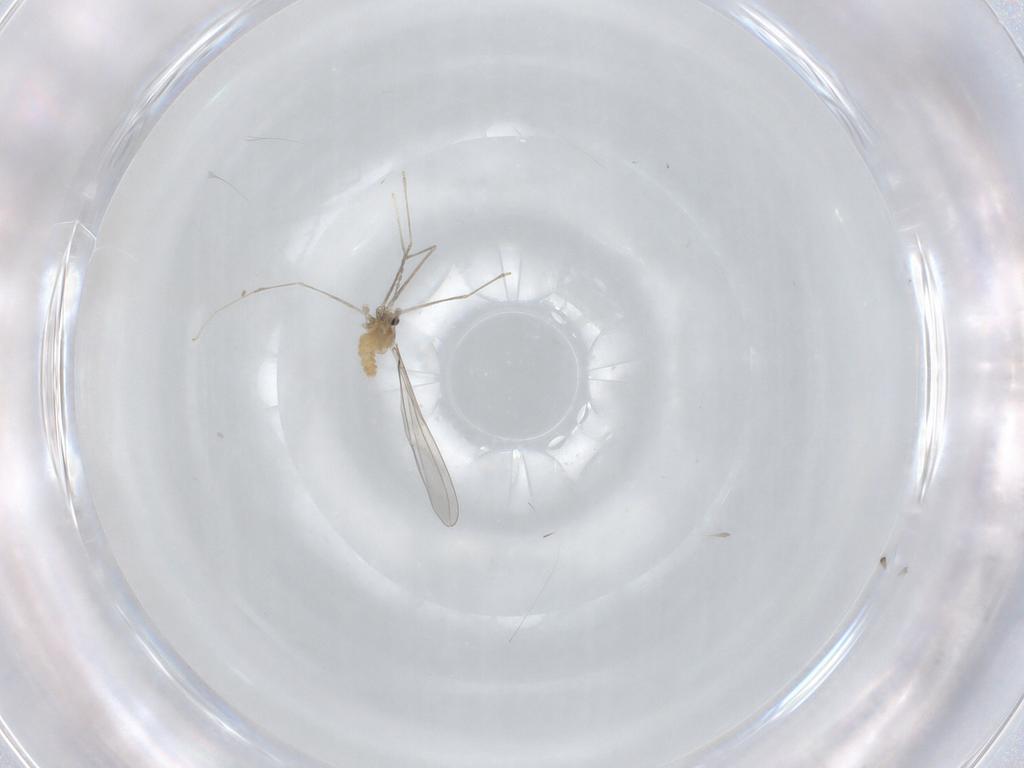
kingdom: Animalia
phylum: Arthropoda
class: Insecta
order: Diptera
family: Cecidomyiidae
